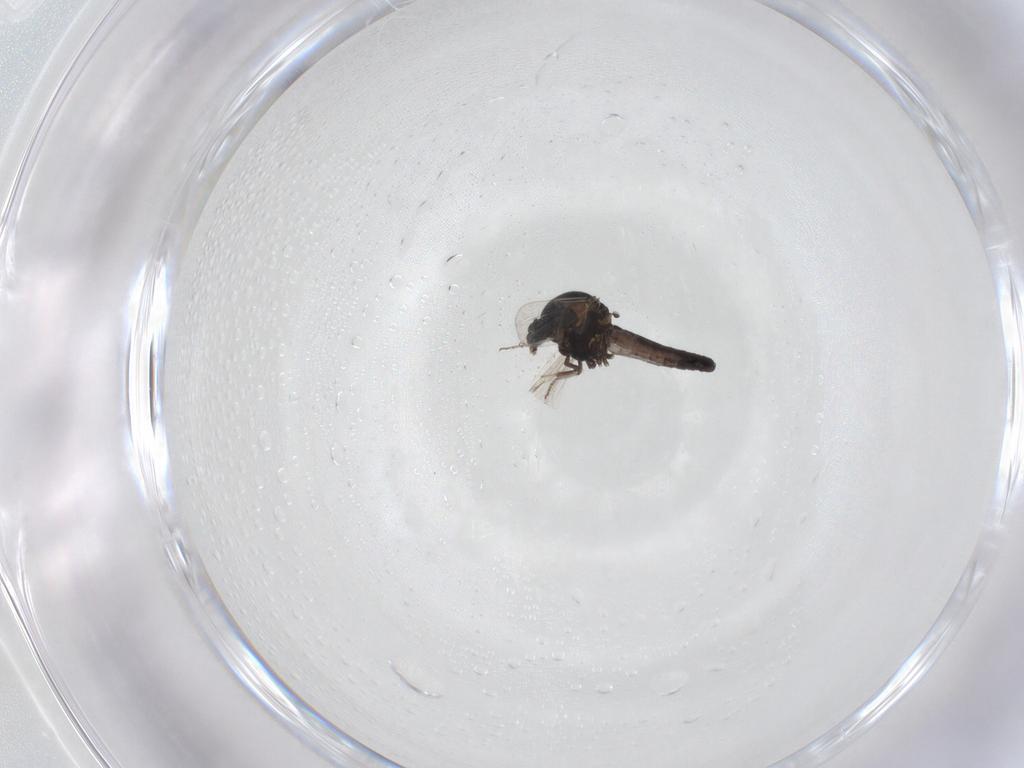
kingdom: Animalia
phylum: Arthropoda
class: Insecta
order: Diptera
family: Ceratopogonidae
